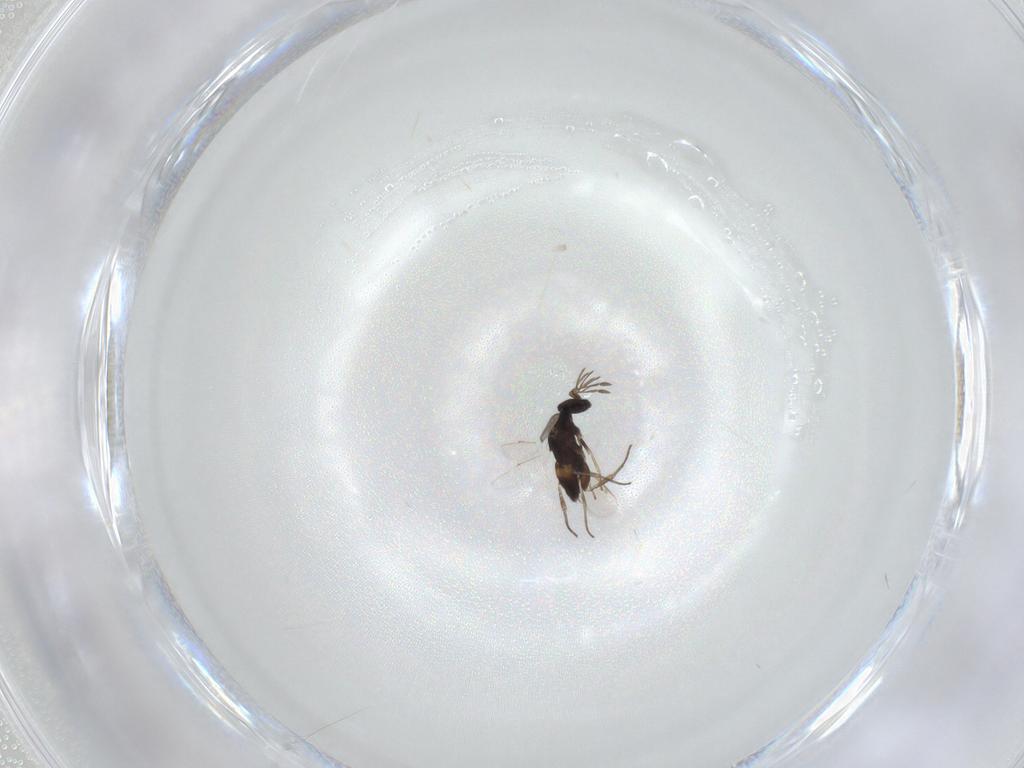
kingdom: Animalia
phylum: Arthropoda
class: Insecta
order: Hymenoptera
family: Eulophidae
